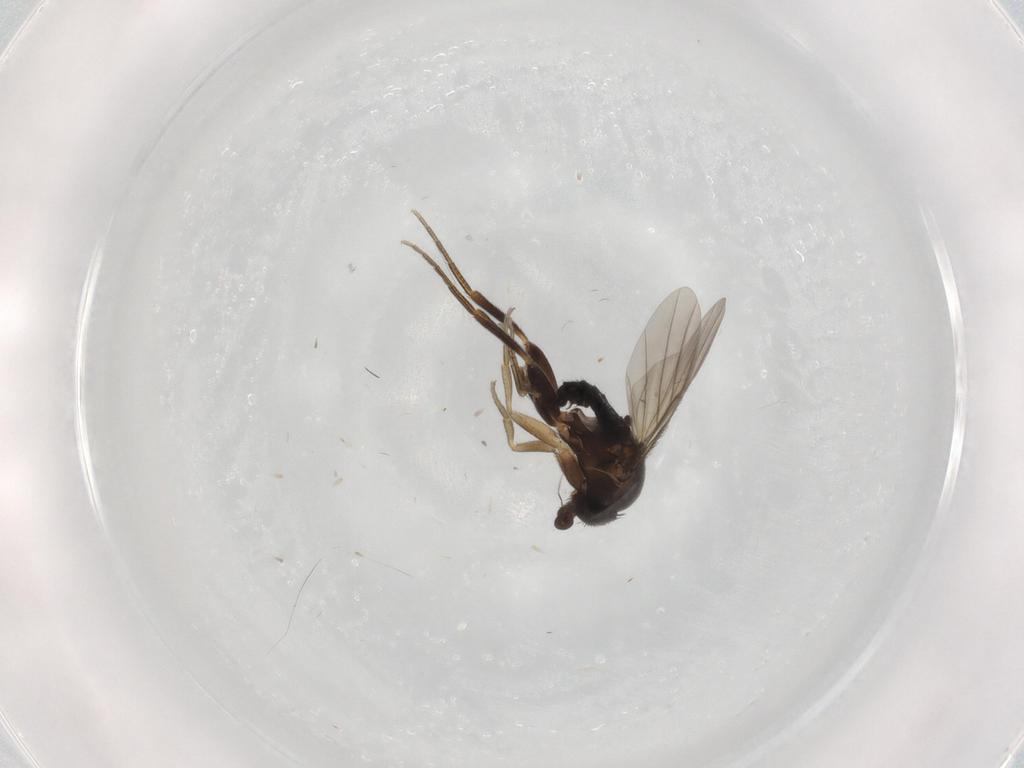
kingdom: Animalia
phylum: Arthropoda
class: Insecta
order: Diptera
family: Phoridae
